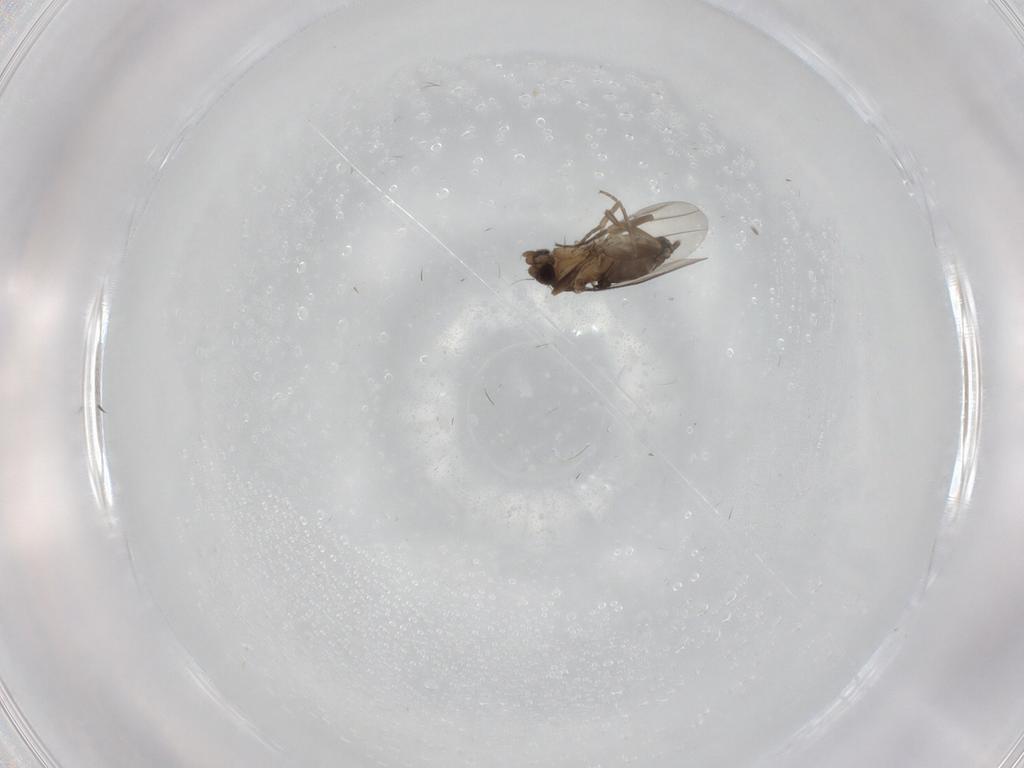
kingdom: Animalia
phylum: Arthropoda
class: Insecta
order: Diptera
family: Phoridae
